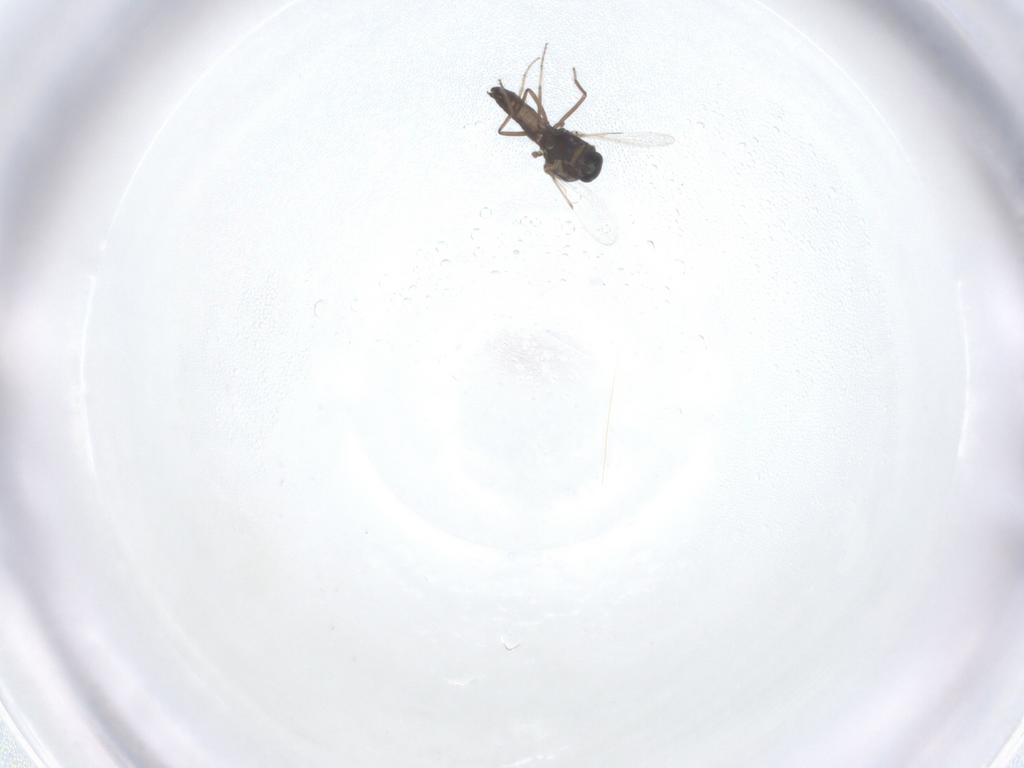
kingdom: Animalia
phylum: Arthropoda
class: Insecta
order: Diptera
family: Ceratopogonidae
